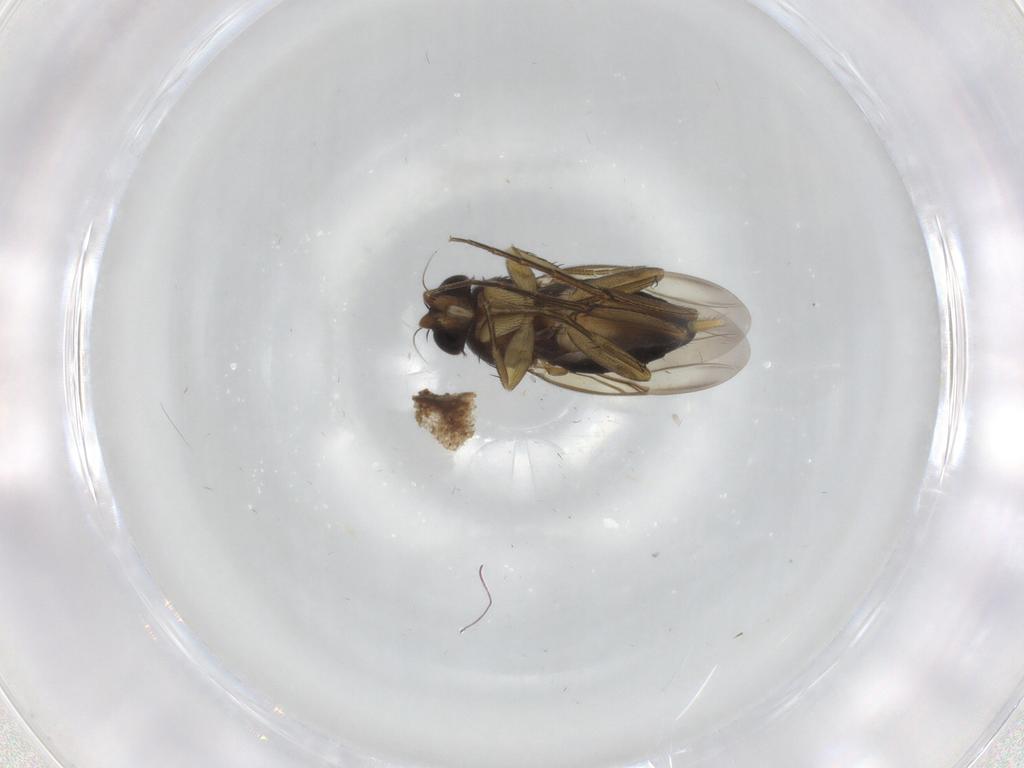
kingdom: Animalia
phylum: Arthropoda
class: Insecta
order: Diptera
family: Phoridae
